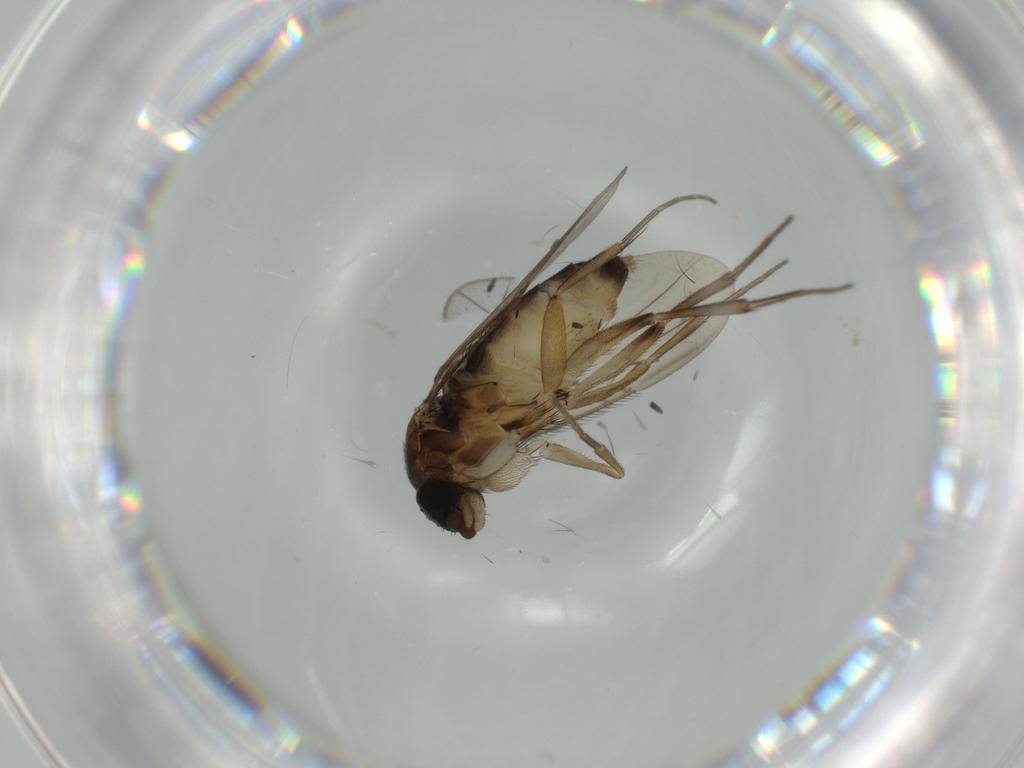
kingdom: Animalia
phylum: Arthropoda
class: Insecta
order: Diptera
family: Phoridae
